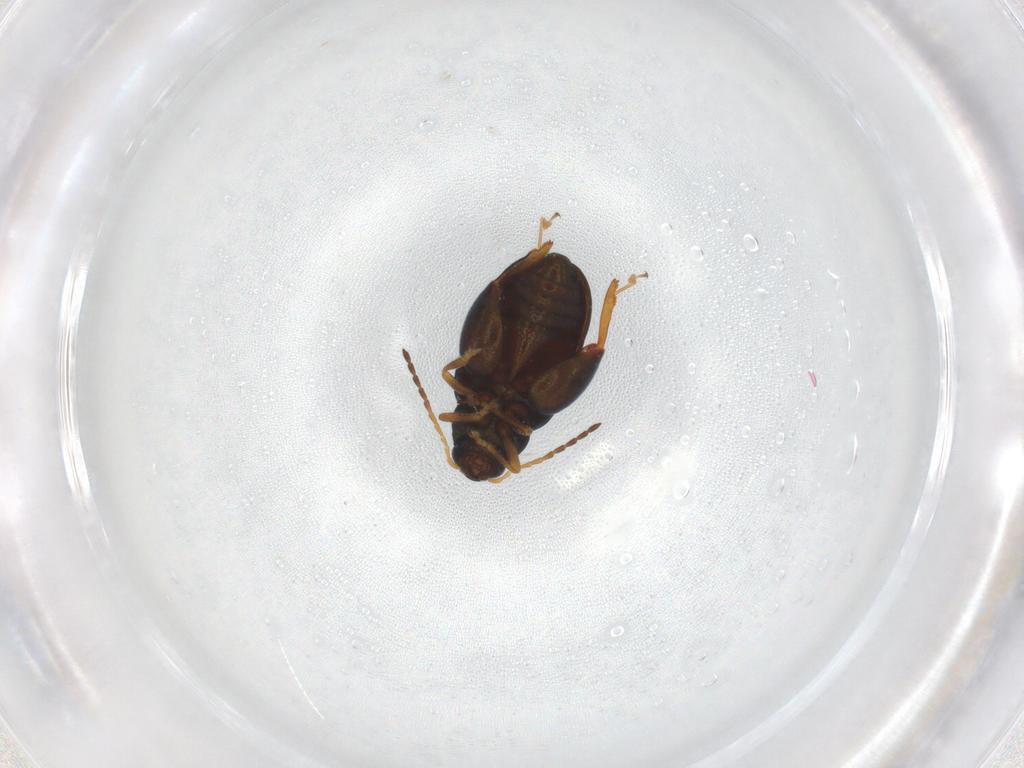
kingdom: Animalia
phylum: Arthropoda
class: Insecta
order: Coleoptera
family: Chrysomelidae
